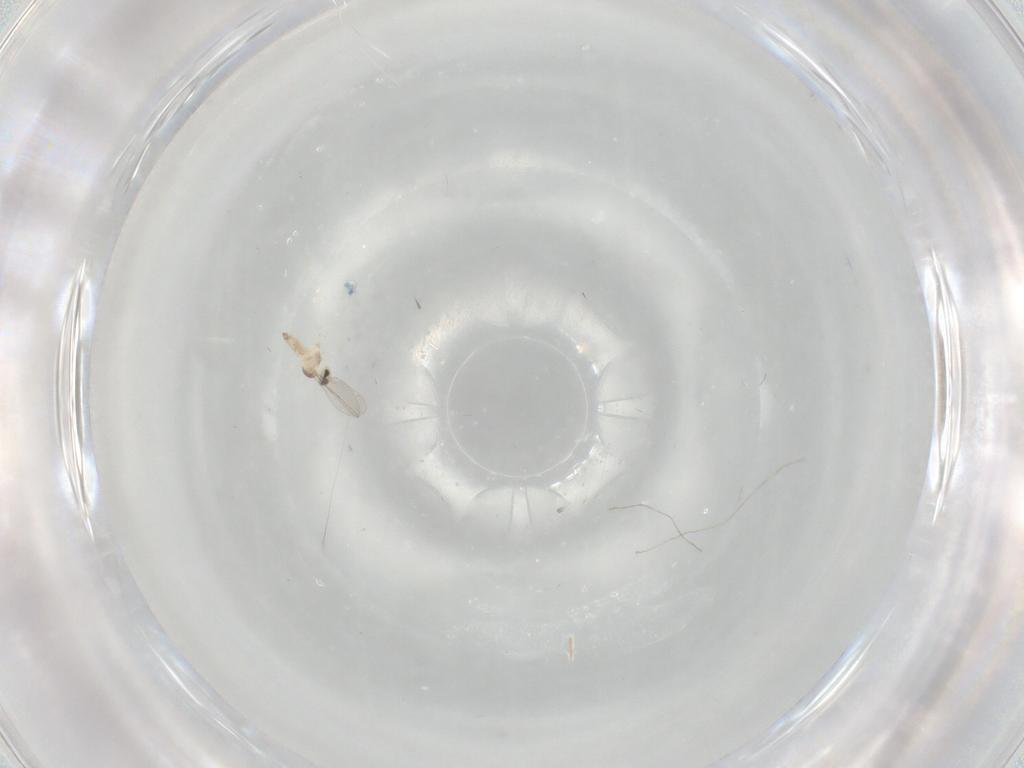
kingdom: Animalia
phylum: Arthropoda
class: Insecta
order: Diptera
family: Cecidomyiidae
